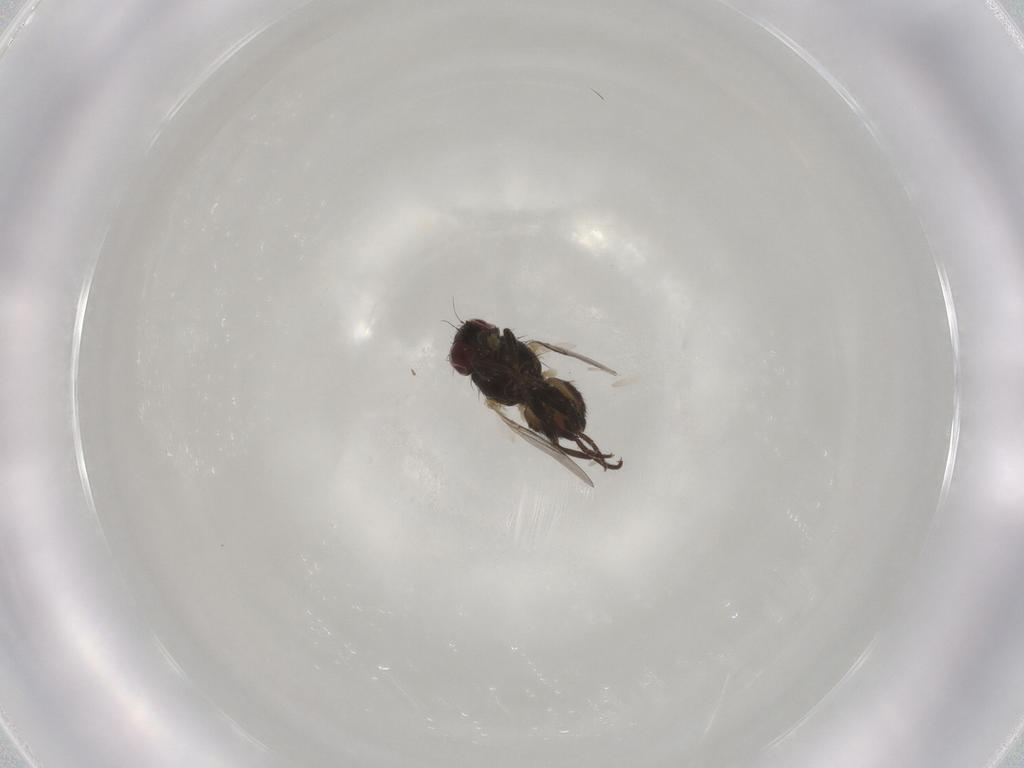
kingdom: Animalia
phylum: Arthropoda
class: Insecta
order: Diptera
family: Agromyzidae
